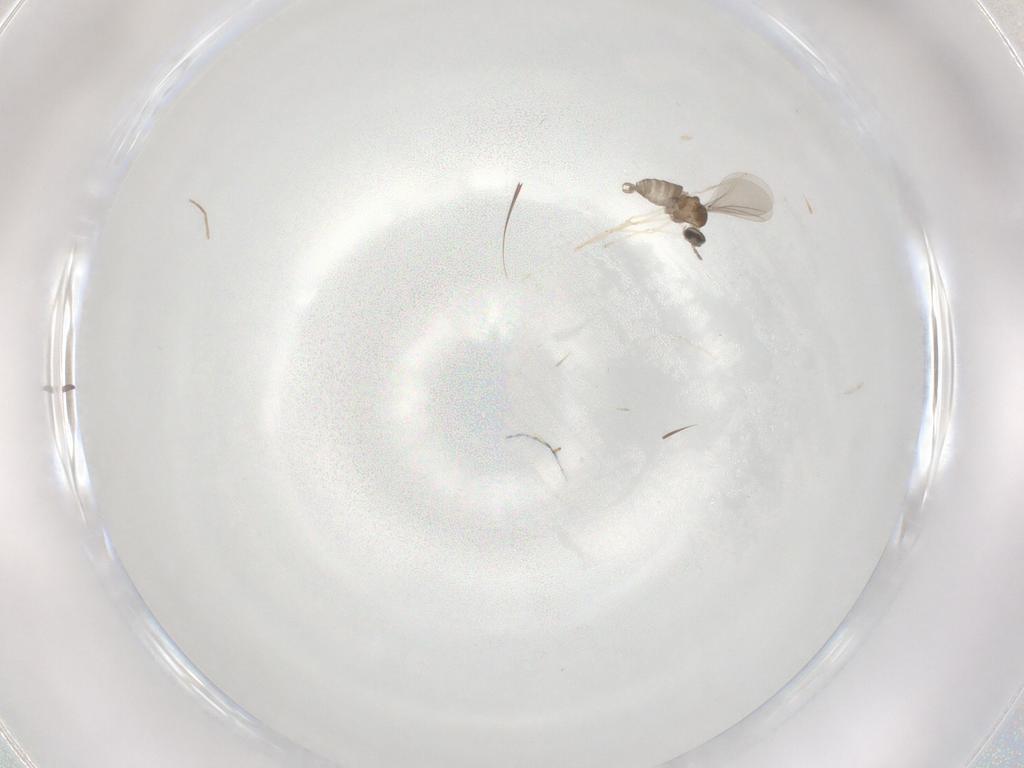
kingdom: Animalia
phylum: Arthropoda
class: Insecta
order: Diptera
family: Cecidomyiidae
